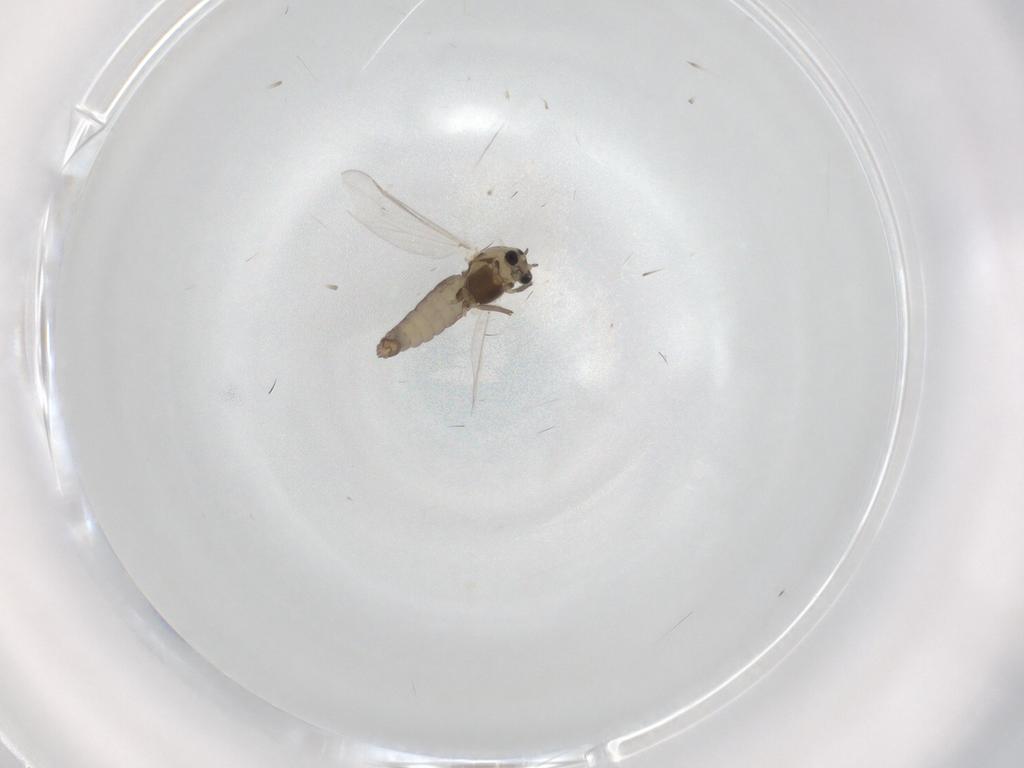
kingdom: Animalia
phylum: Arthropoda
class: Insecta
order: Diptera
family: Chironomidae
